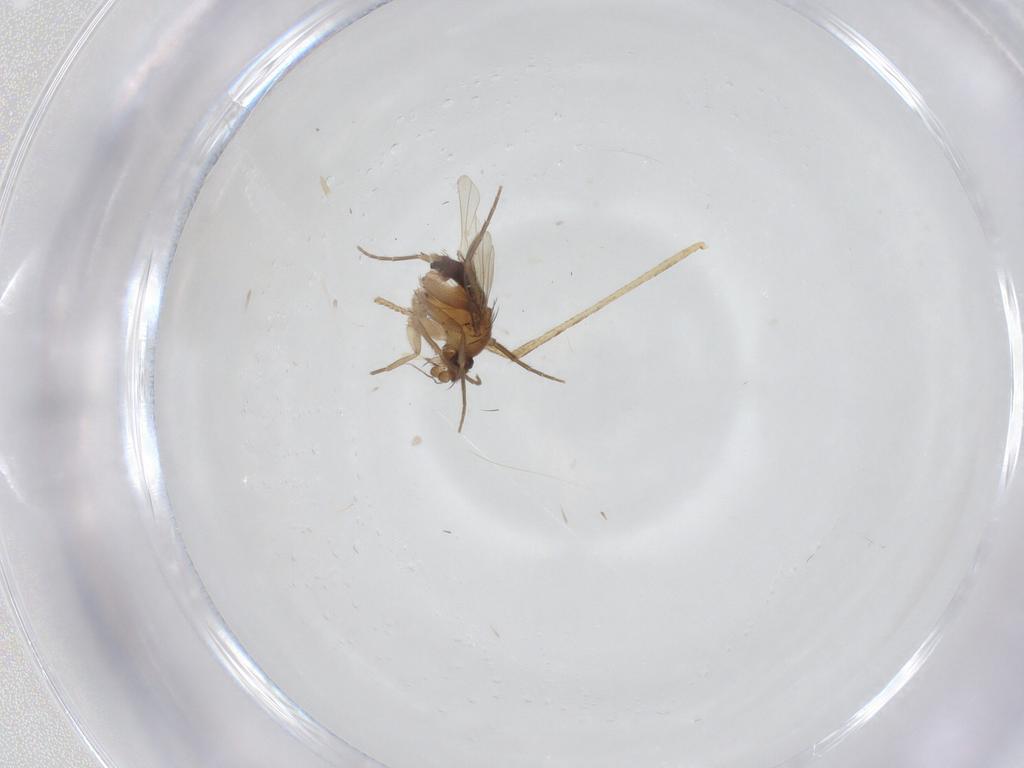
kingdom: Animalia
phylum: Arthropoda
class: Insecta
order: Diptera
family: Phoridae
